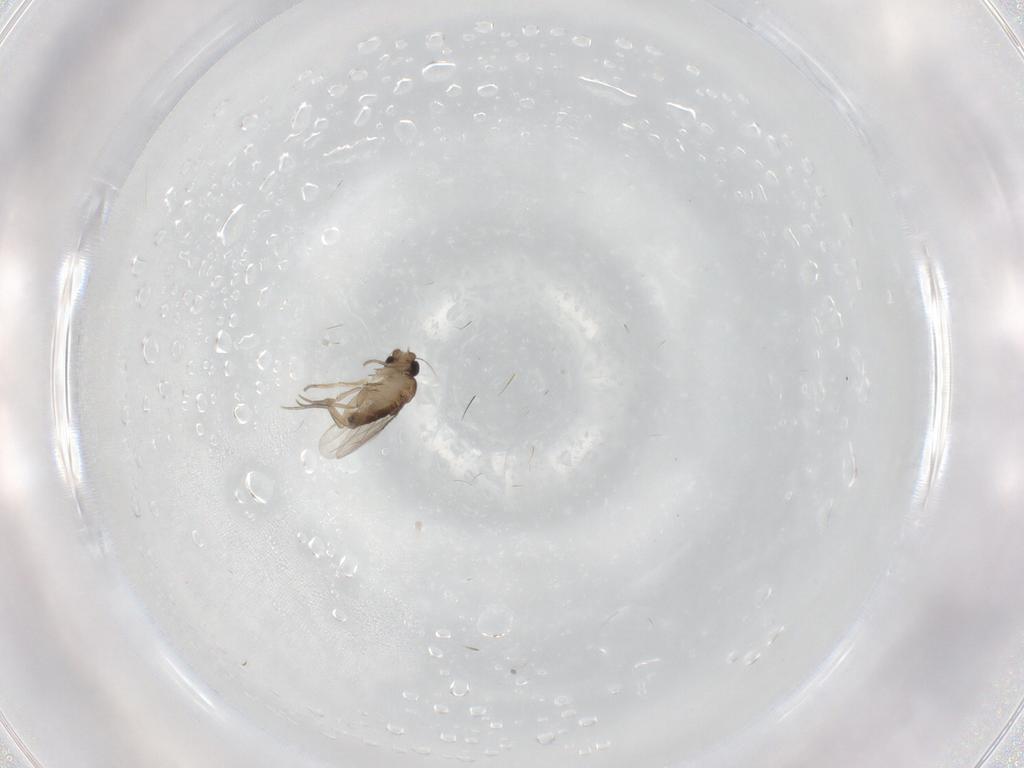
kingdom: Animalia
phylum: Arthropoda
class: Insecta
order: Diptera
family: Phoridae
